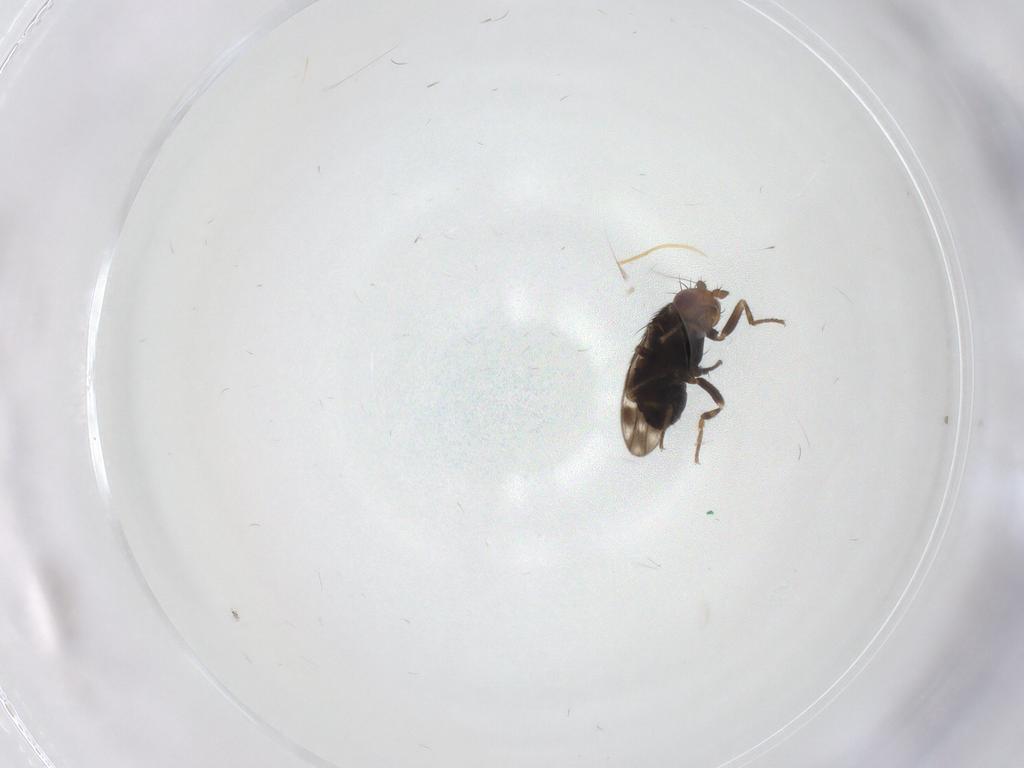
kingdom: Animalia
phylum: Arthropoda
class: Insecta
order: Diptera
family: Sphaeroceridae
